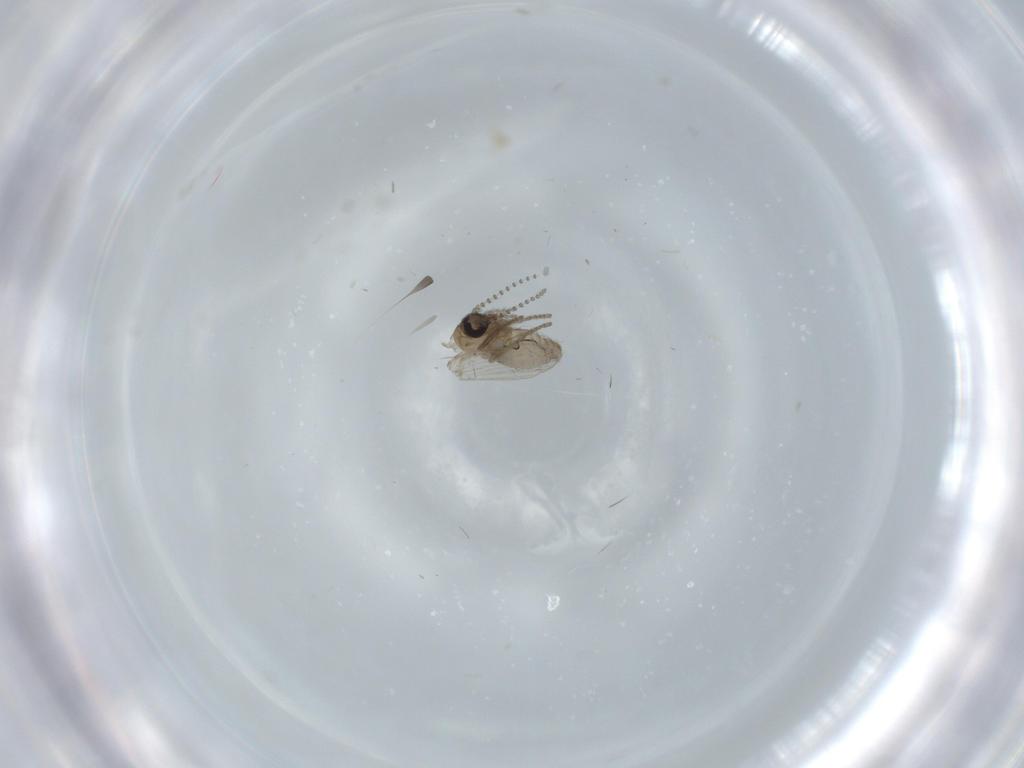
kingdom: Animalia
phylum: Arthropoda
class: Insecta
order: Diptera
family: Psychodidae
